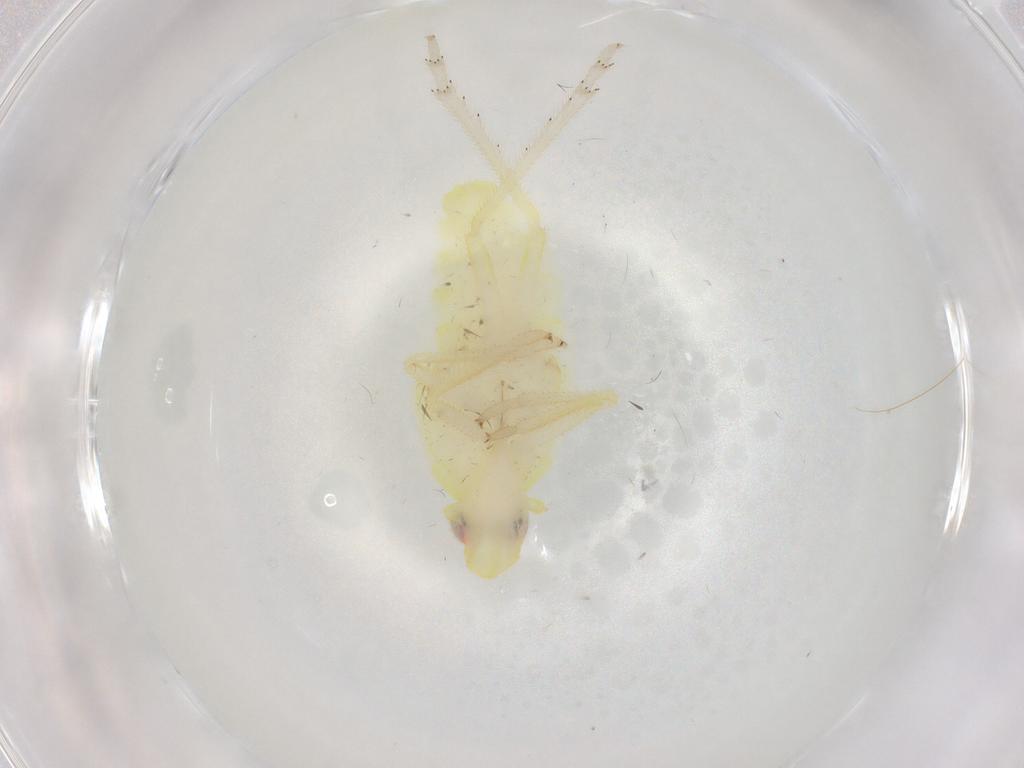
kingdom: Animalia
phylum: Arthropoda
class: Insecta
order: Hemiptera
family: Tropiduchidae
